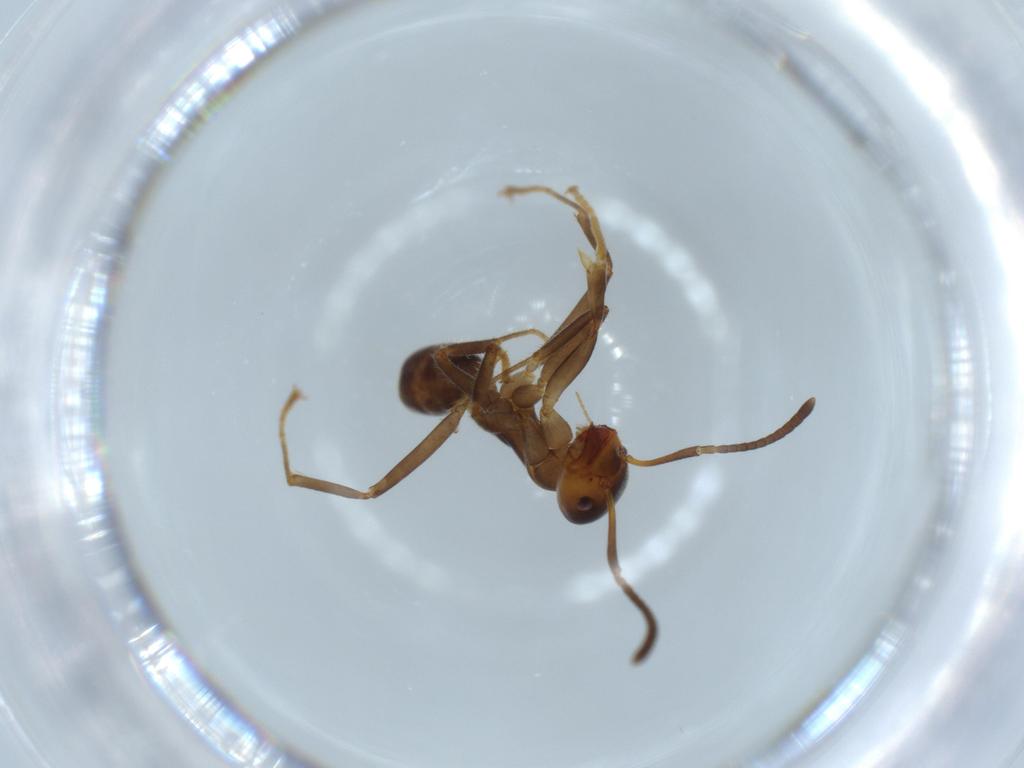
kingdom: Animalia
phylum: Arthropoda
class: Insecta
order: Hymenoptera
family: Formicidae
